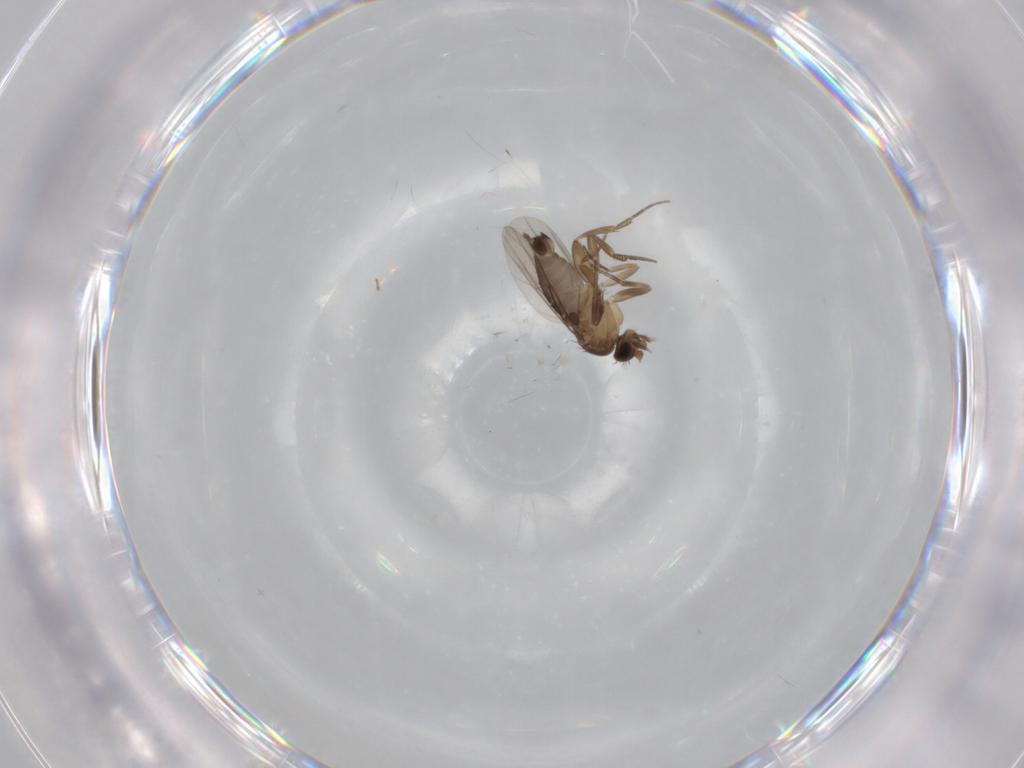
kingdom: Animalia
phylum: Arthropoda
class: Insecta
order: Diptera
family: Phoridae
